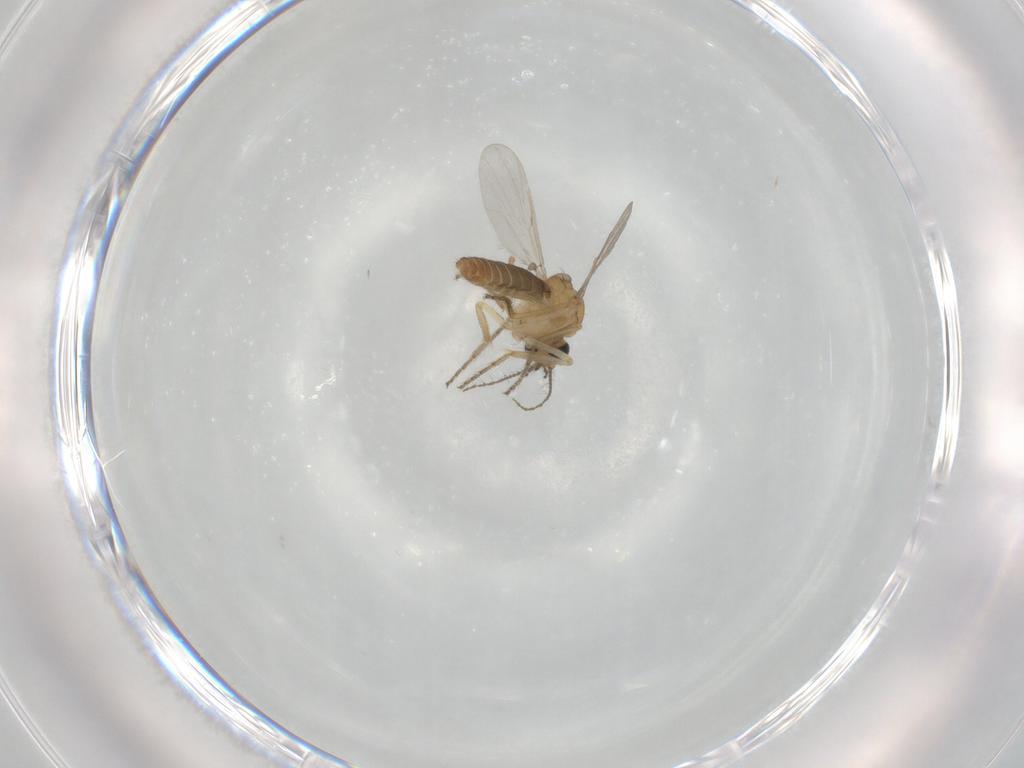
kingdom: Animalia
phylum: Arthropoda
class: Insecta
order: Diptera
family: Ceratopogonidae
